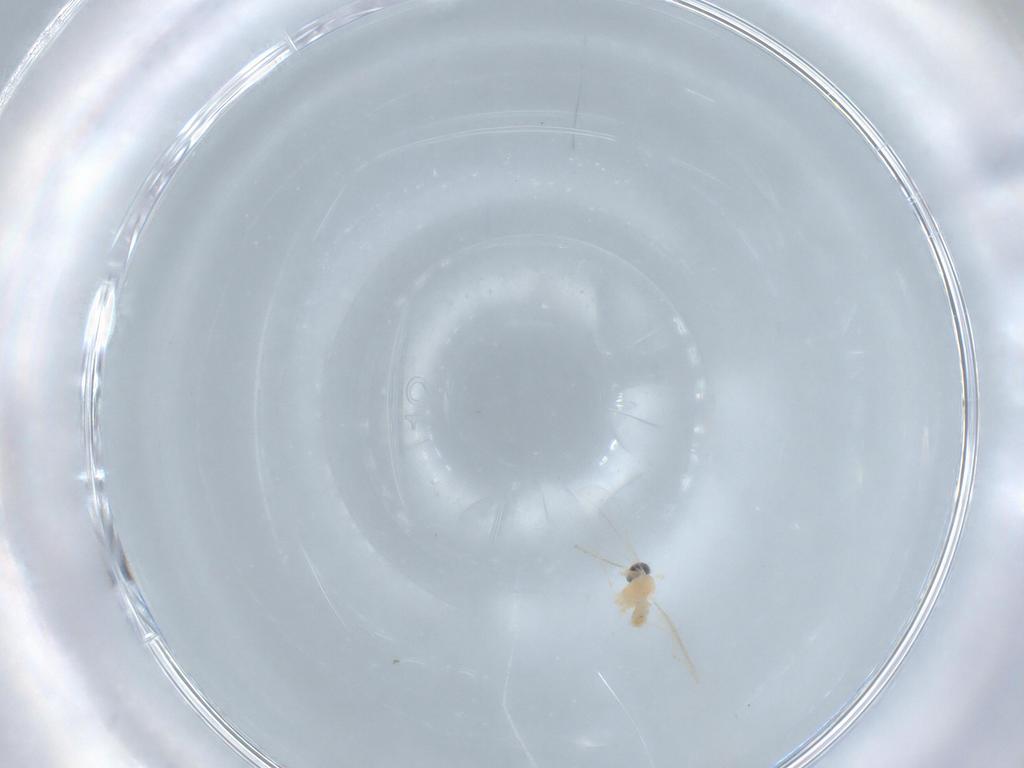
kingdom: Animalia
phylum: Arthropoda
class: Insecta
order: Diptera
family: Cecidomyiidae
